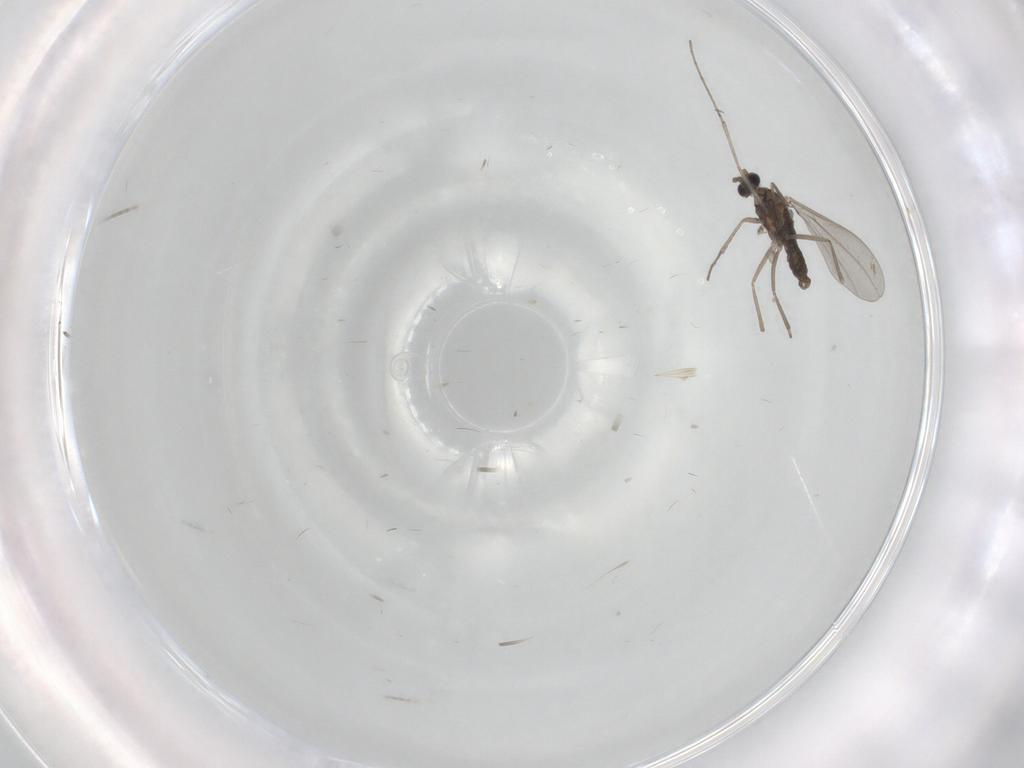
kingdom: Animalia
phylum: Arthropoda
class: Insecta
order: Diptera
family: Cecidomyiidae
